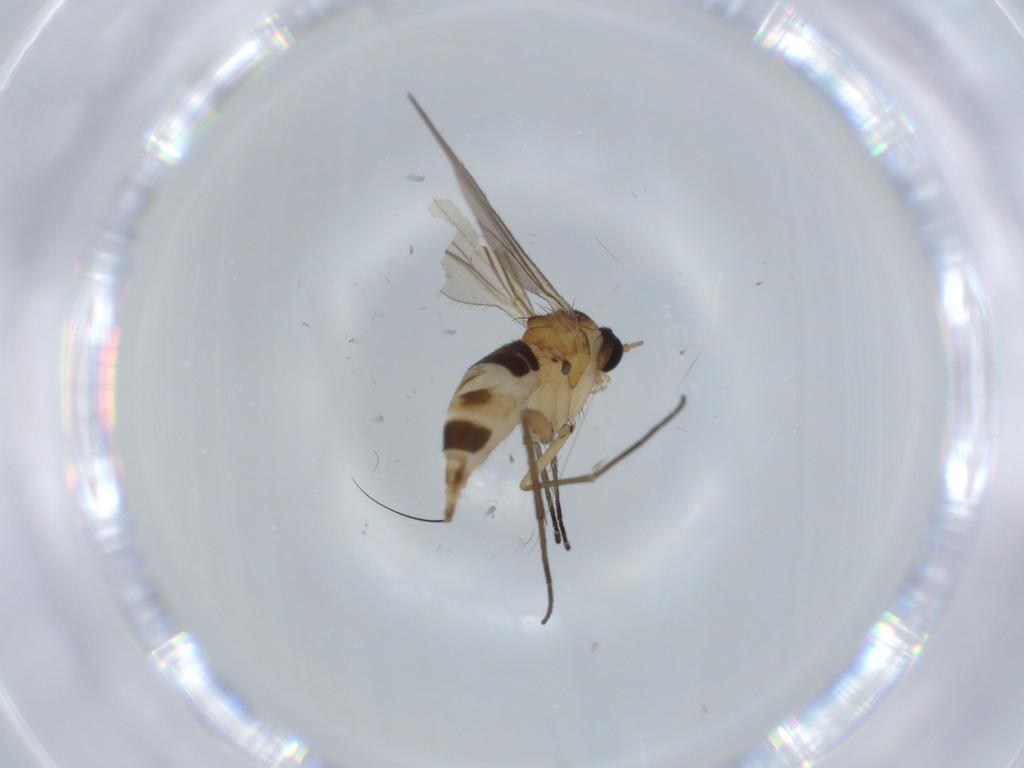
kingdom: Animalia
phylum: Arthropoda
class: Insecta
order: Diptera
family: Cecidomyiidae
